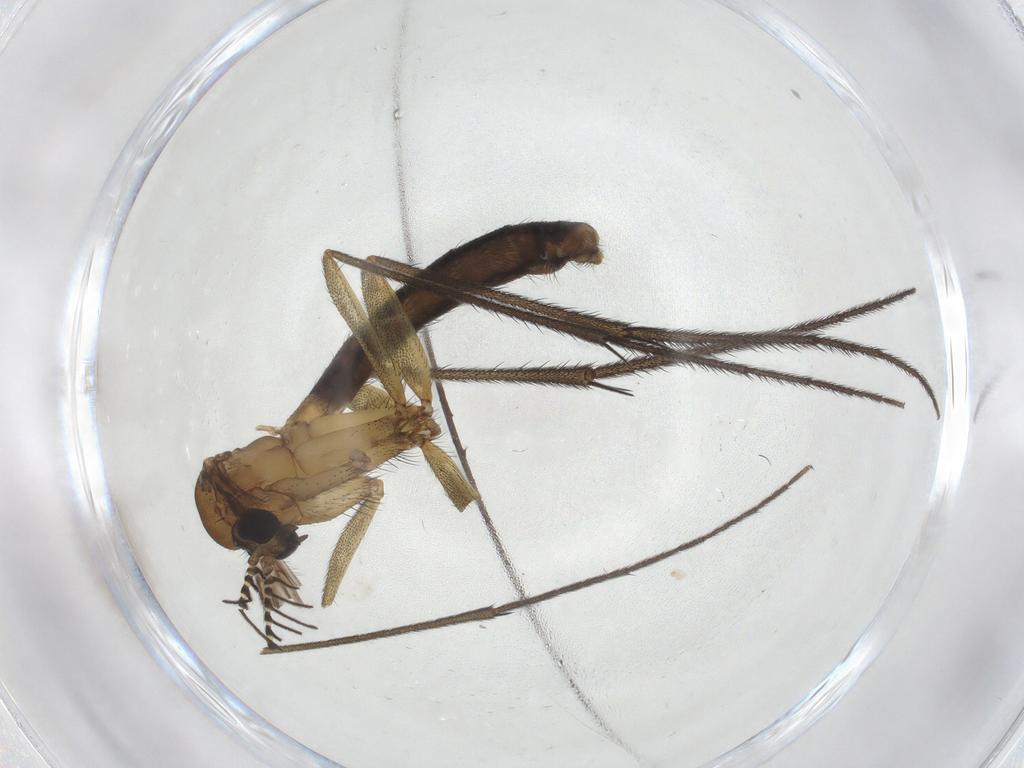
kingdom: Animalia
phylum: Arthropoda
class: Insecta
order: Diptera
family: Ditomyiidae
